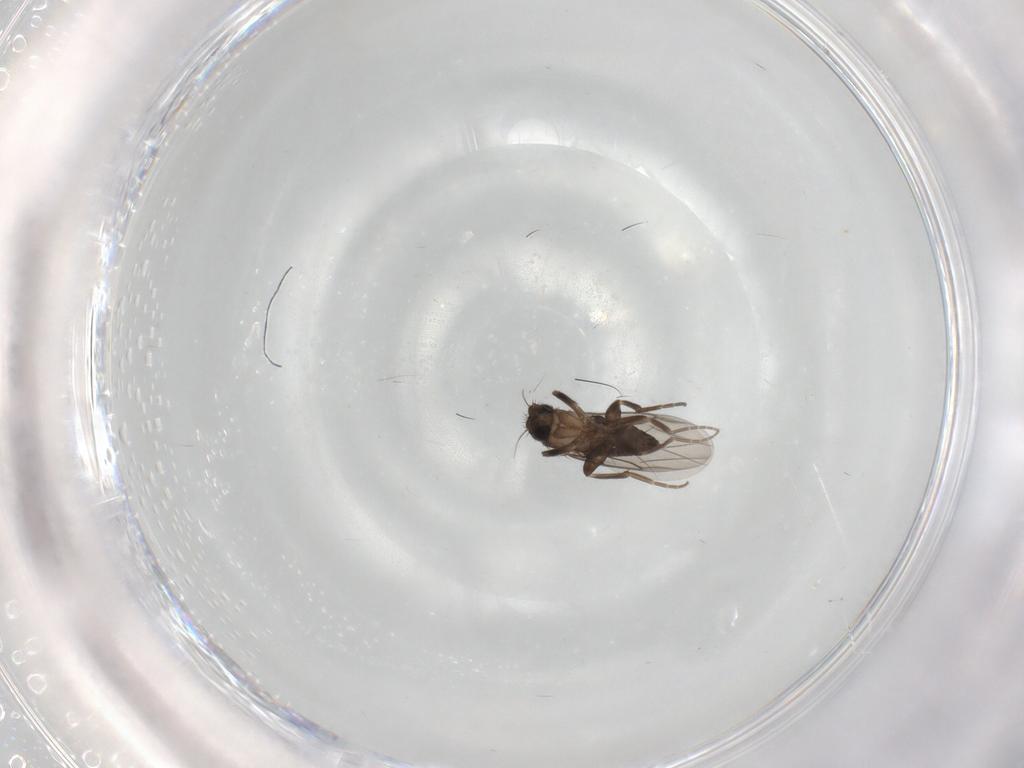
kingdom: Animalia
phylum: Arthropoda
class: Insecta
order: Diptera
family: Phoridae
